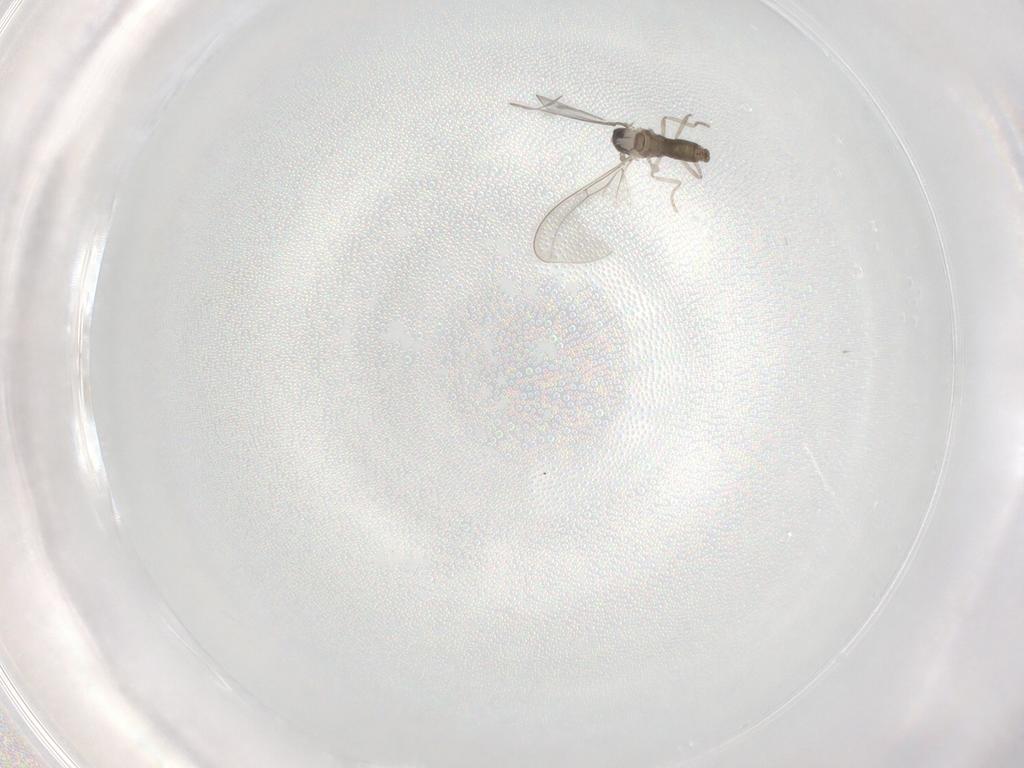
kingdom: Animalia
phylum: Arthropoda
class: Insecta
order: Diptera
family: Cecidomyiidae
